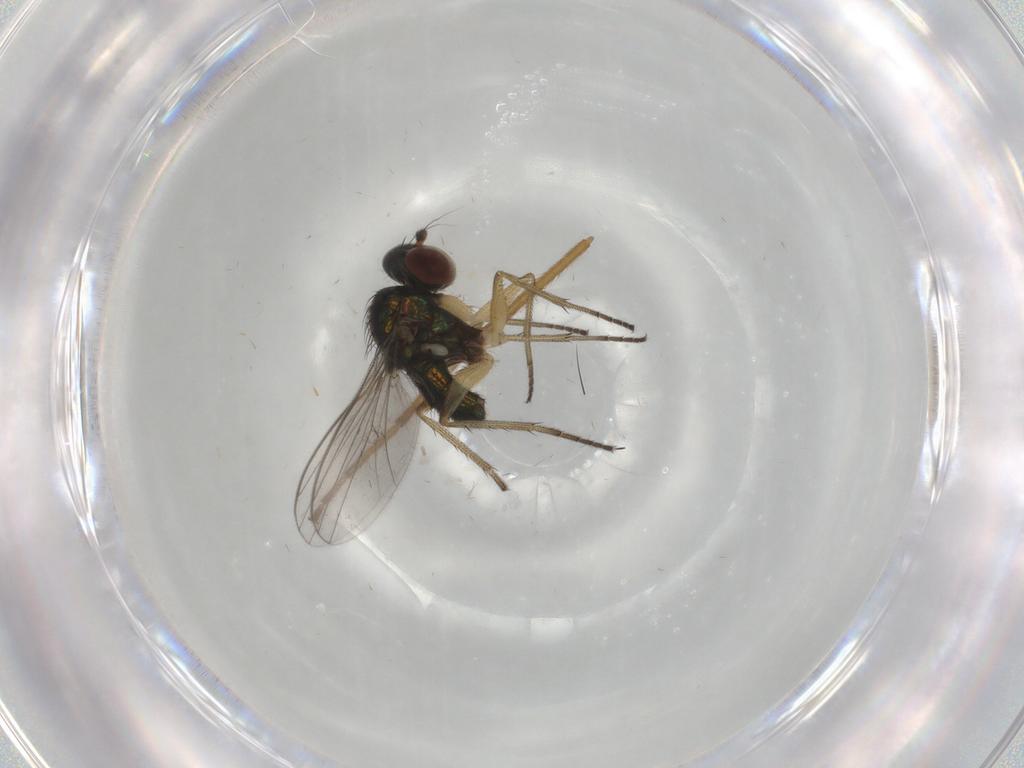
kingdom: Animalia
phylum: Arthropoda
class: Insecta
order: Diptera
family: Dolichopodidae
